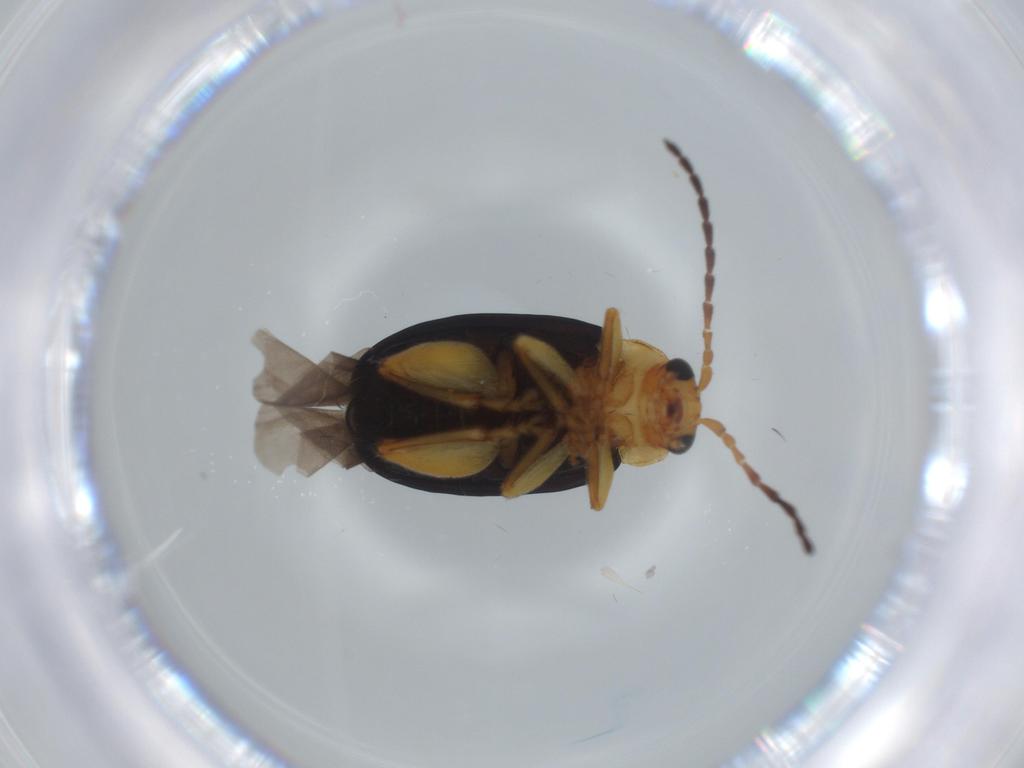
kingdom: Animalia
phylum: Arthropoda
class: Insecta
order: Coleoptera
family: Chrysomelidae
